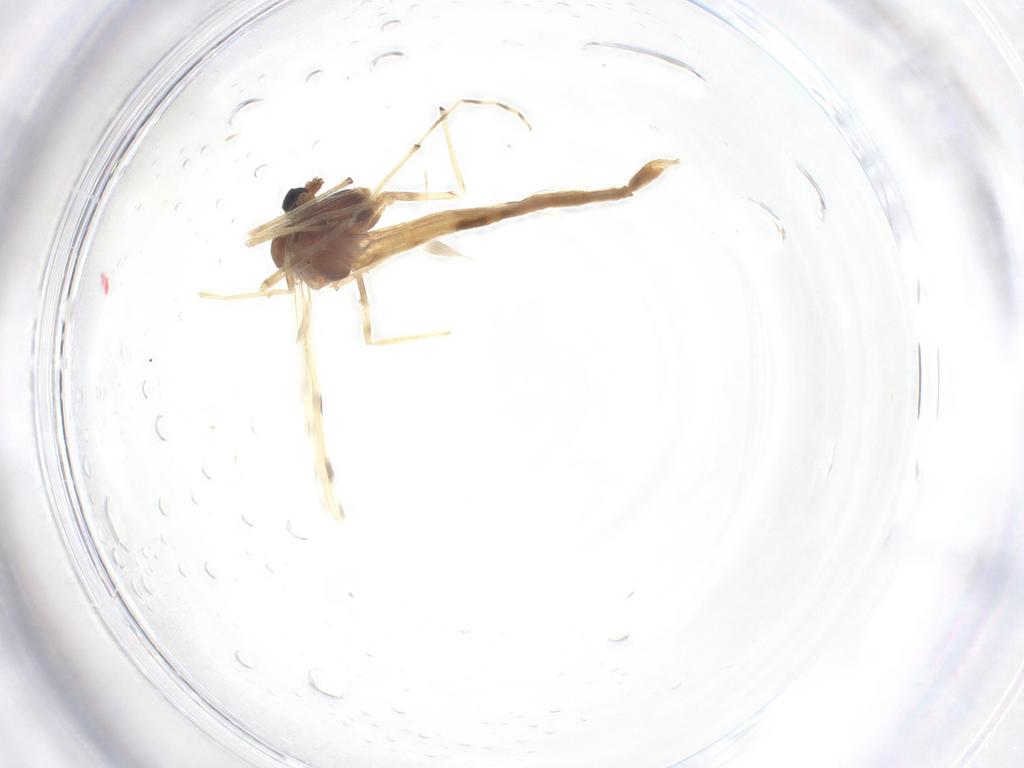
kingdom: Animalia
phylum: Arthropoda
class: Insecta
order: Diptera
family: Chironomidae
